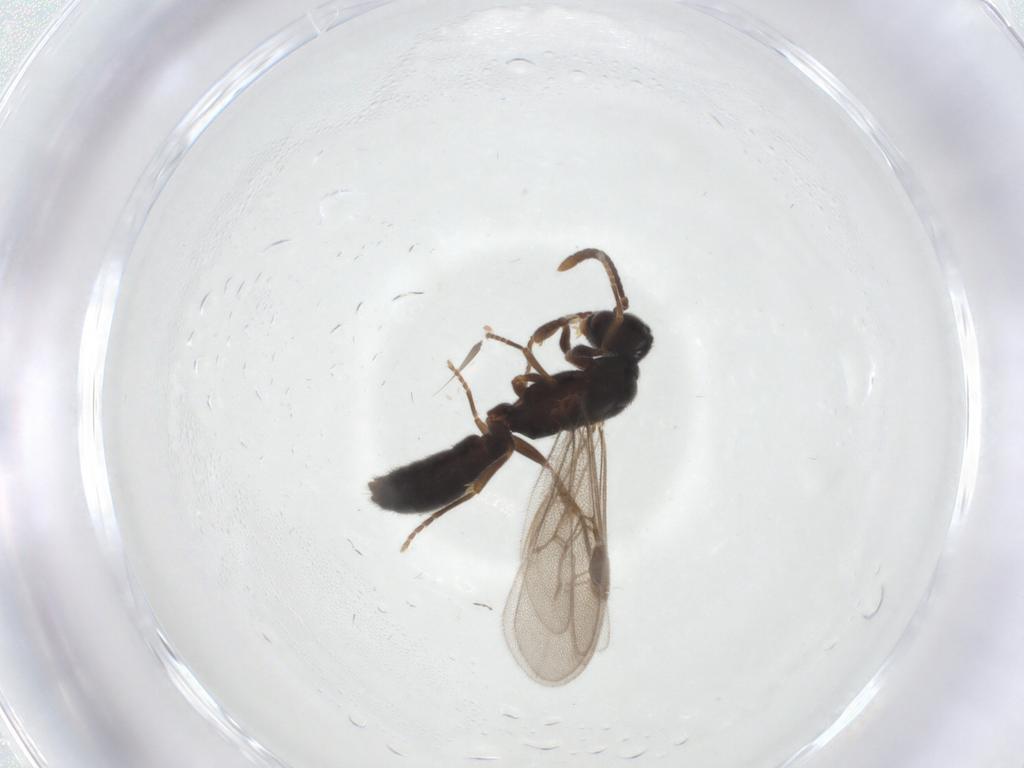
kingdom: Animalia
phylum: Arthropoda
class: Insecta
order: Hymenoptera
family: Formicidae
